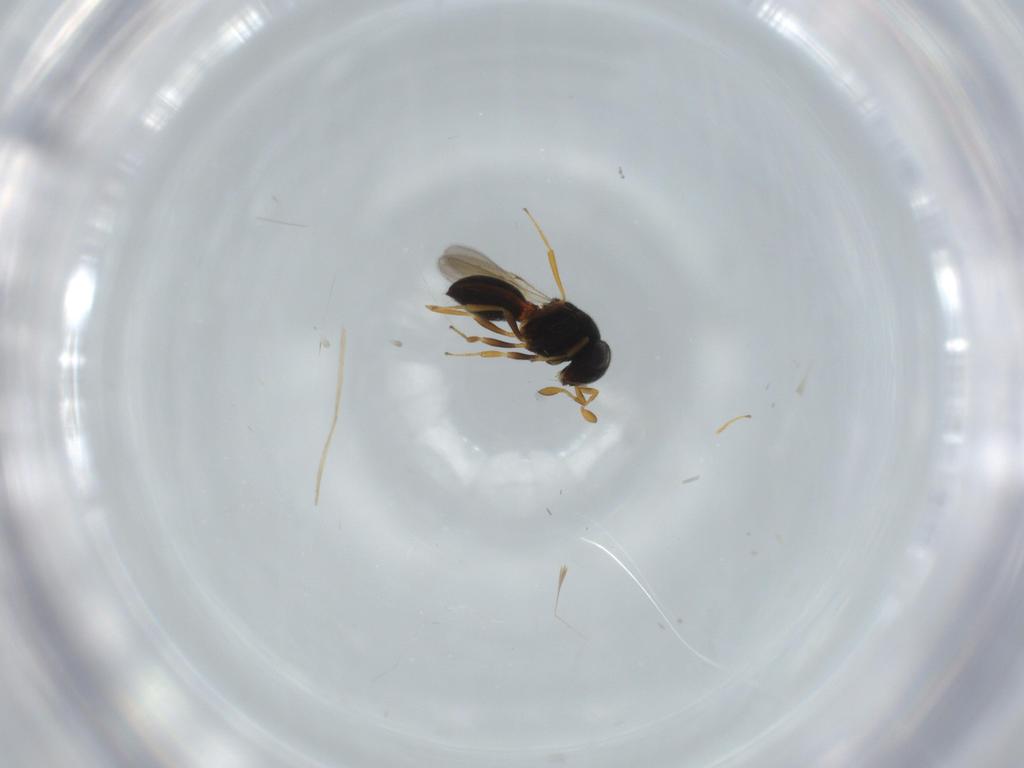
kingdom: Animalia
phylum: Arthropoda
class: Insecta
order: Hymenoptera
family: Scelionidae
